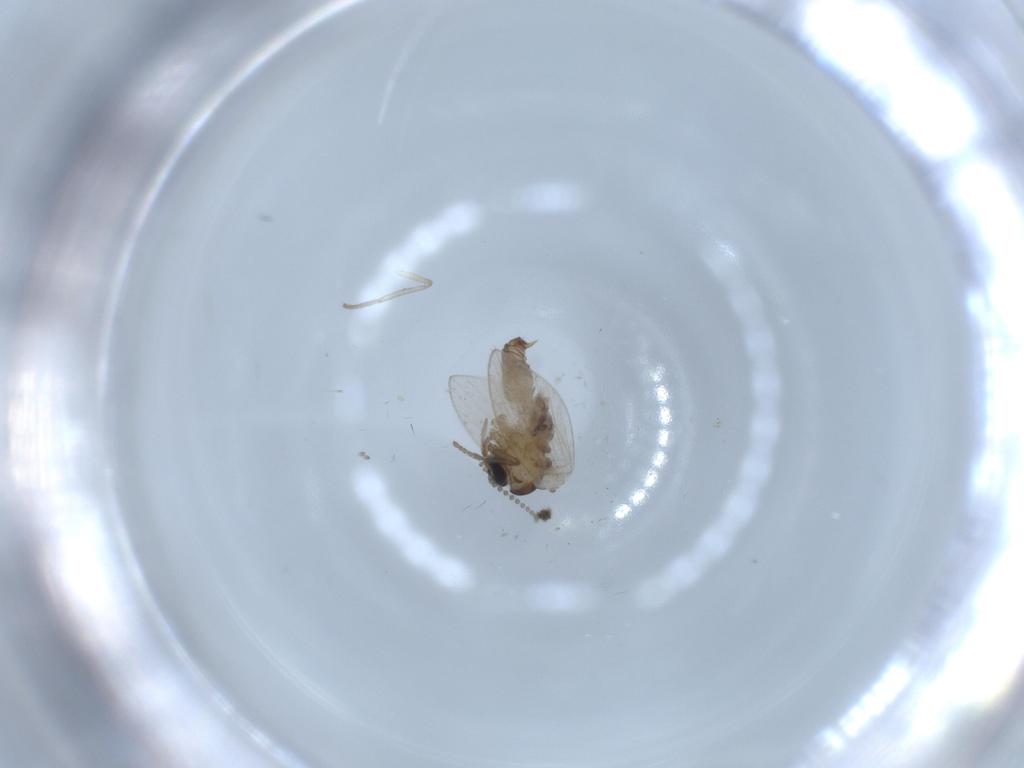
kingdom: Animalia
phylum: Arthropoda
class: Insecta
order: Diptera
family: Psychodidae
